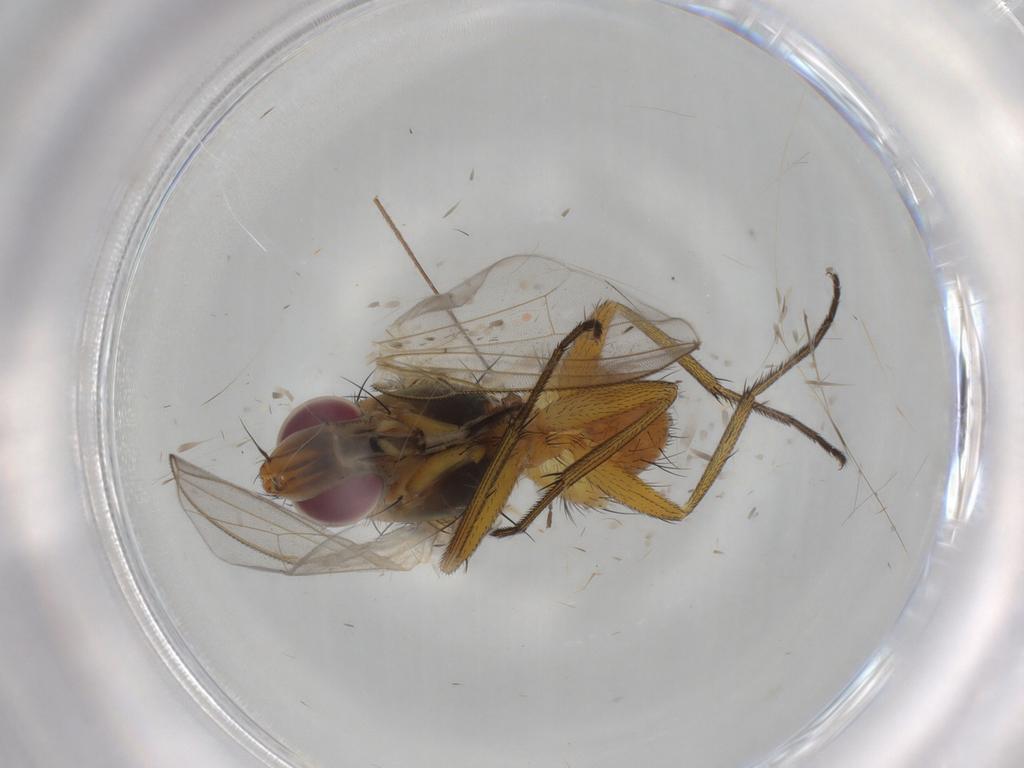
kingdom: Animalia
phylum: Arthropoda
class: Insecta
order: Diptera
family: Muscidae
